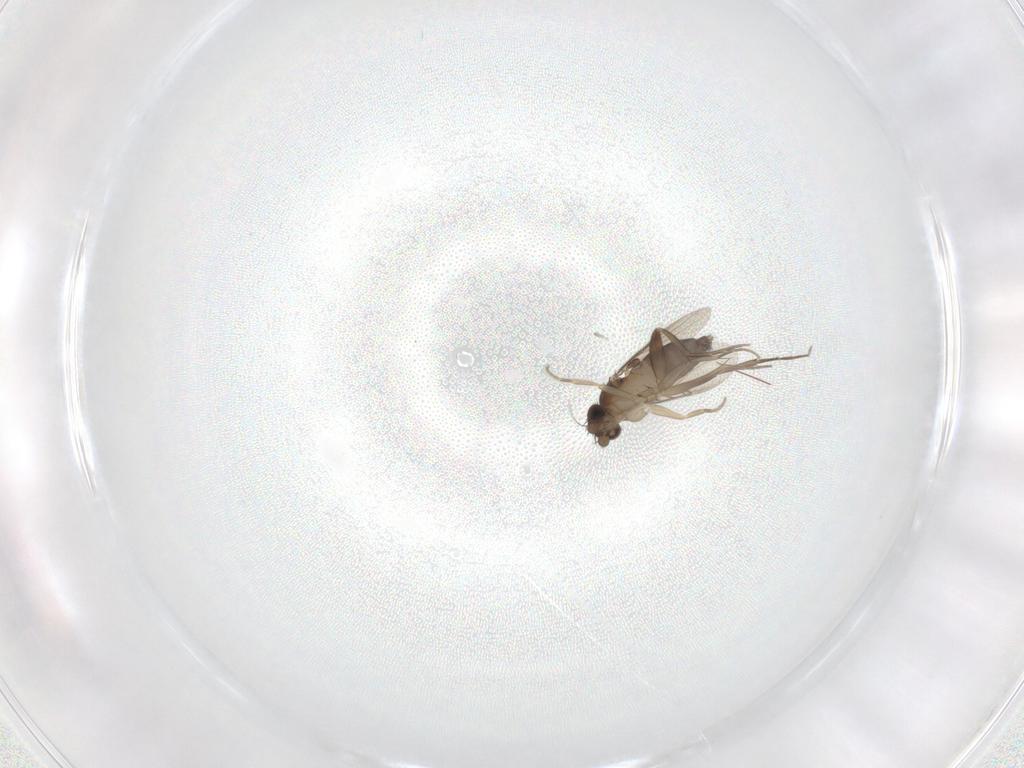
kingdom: Animalia
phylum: Arthropoda
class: Insecta
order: Diptera
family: Phoridae
